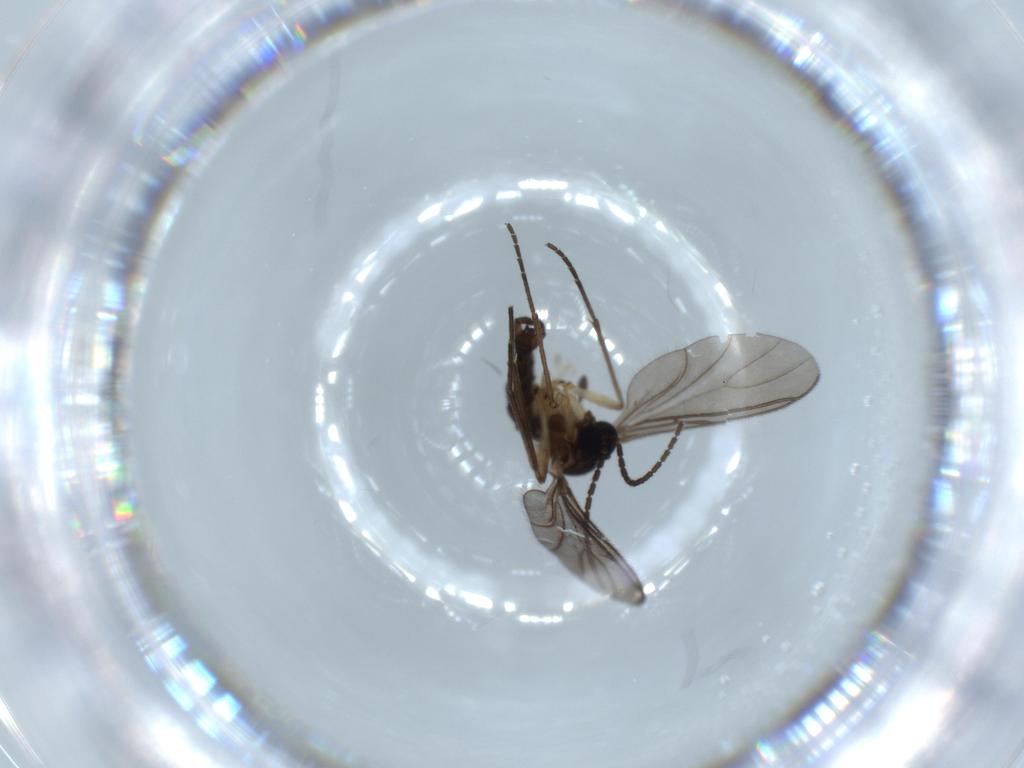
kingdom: Animalia
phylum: Arthropoda
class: Insecta
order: Diptera
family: Sciaridae
